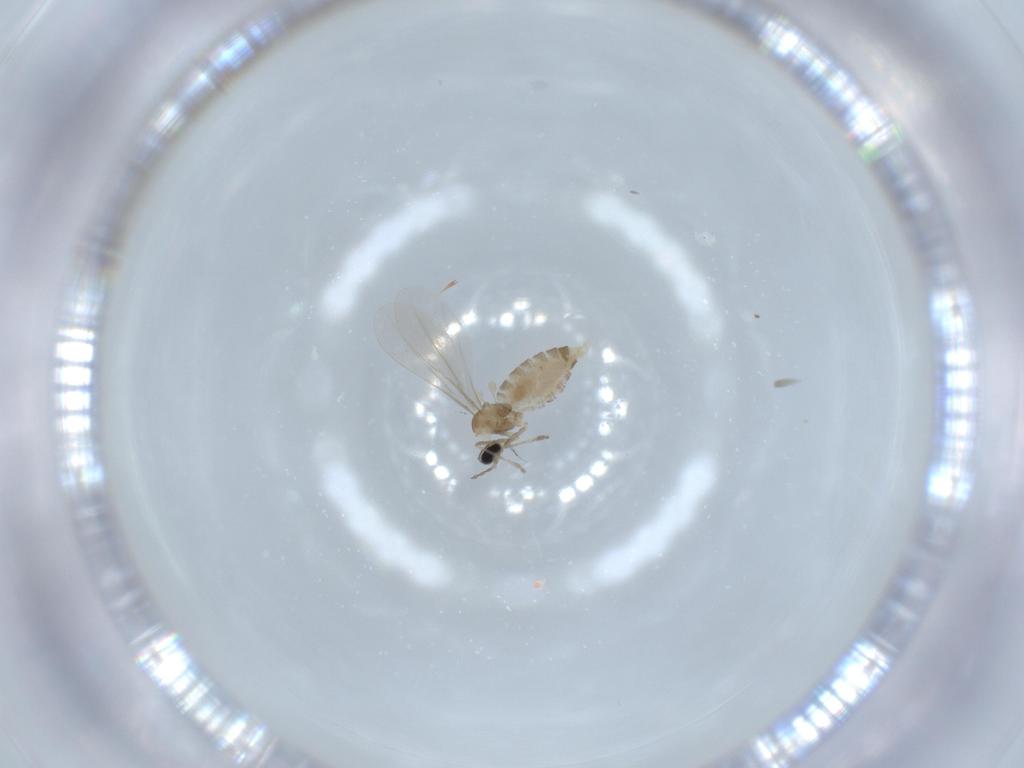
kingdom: Animalia
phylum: Arthropoda
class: Insecta
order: Diptera
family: Cecidomyiidae
